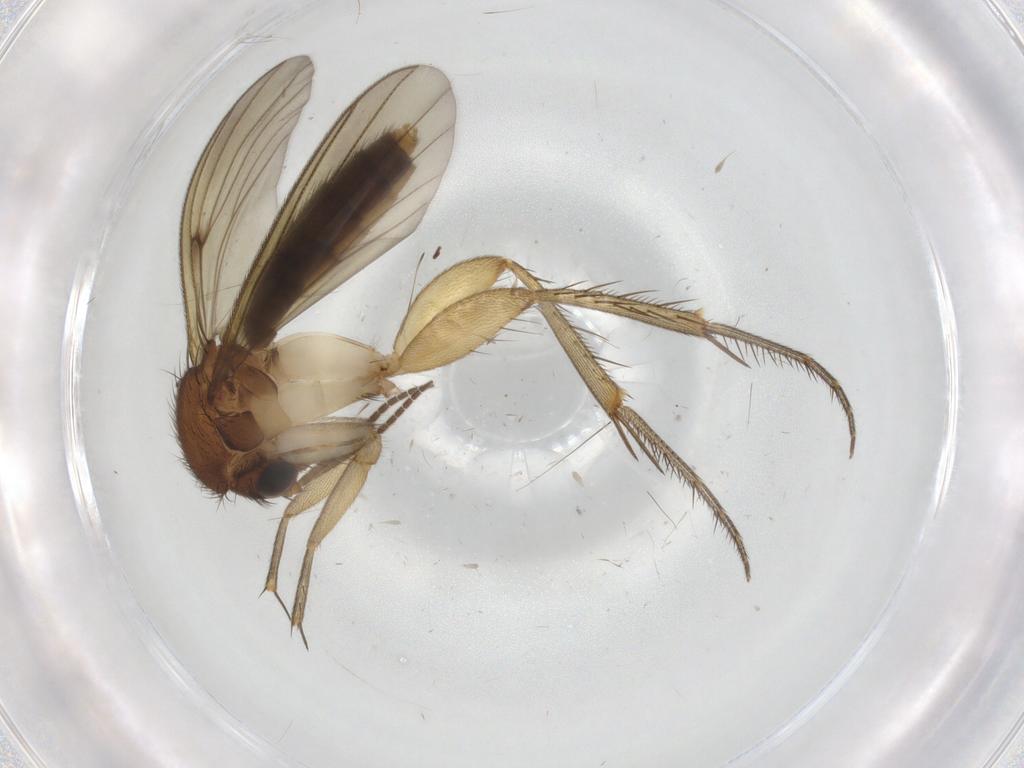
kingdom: Animalia
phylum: Arthropoda
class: Insecta
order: Diptera
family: Cecidomyiidae
